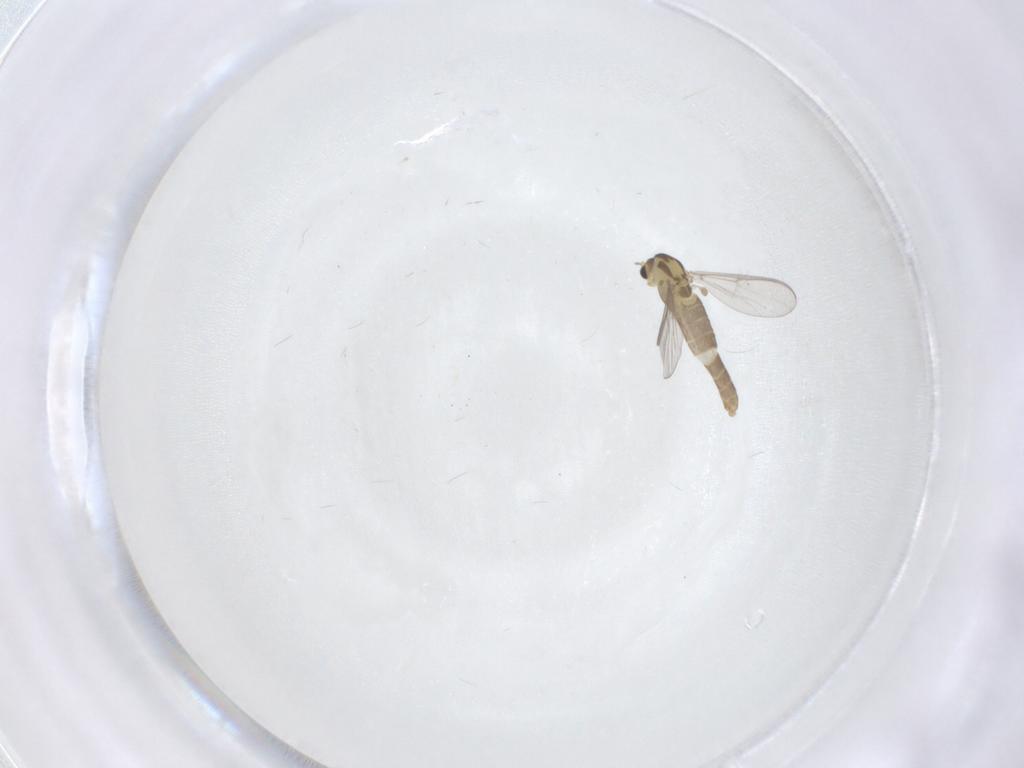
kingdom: Animalia
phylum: Arthropoda
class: Insecta
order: Diptera
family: Chironomidae
